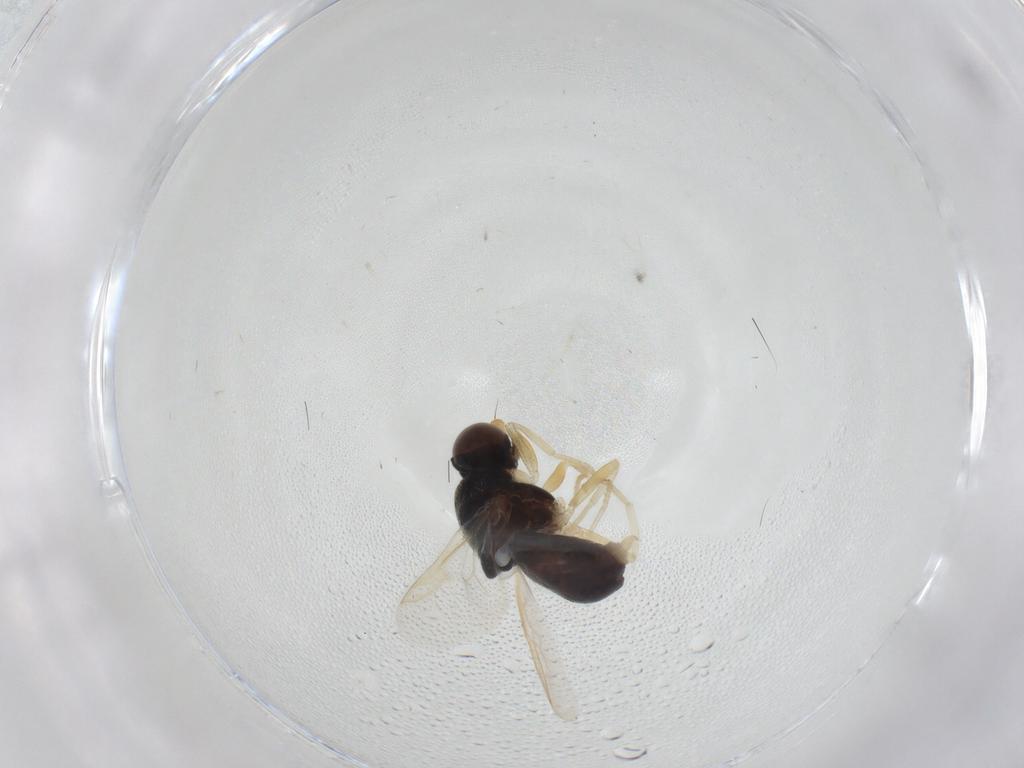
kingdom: Animalia
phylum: Arthropoda
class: Insecta
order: Diptera
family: Stratiomyidae
